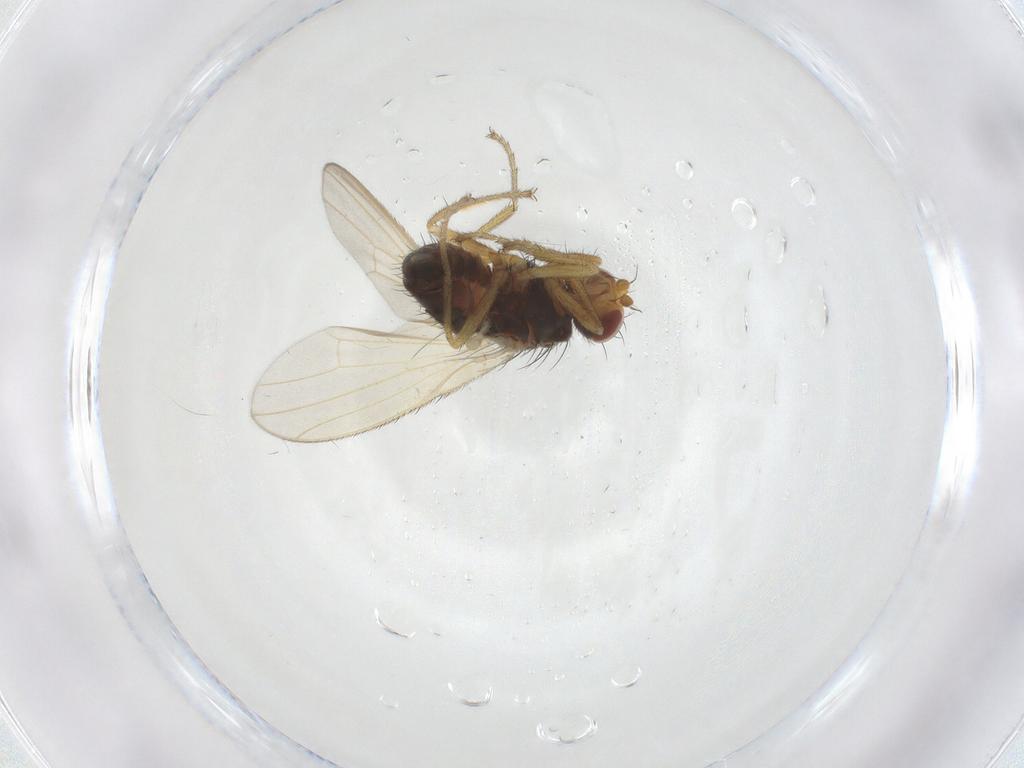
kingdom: Animalia
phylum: Arthropoda
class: Insecta
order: Diptera
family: Heleomyzidae
